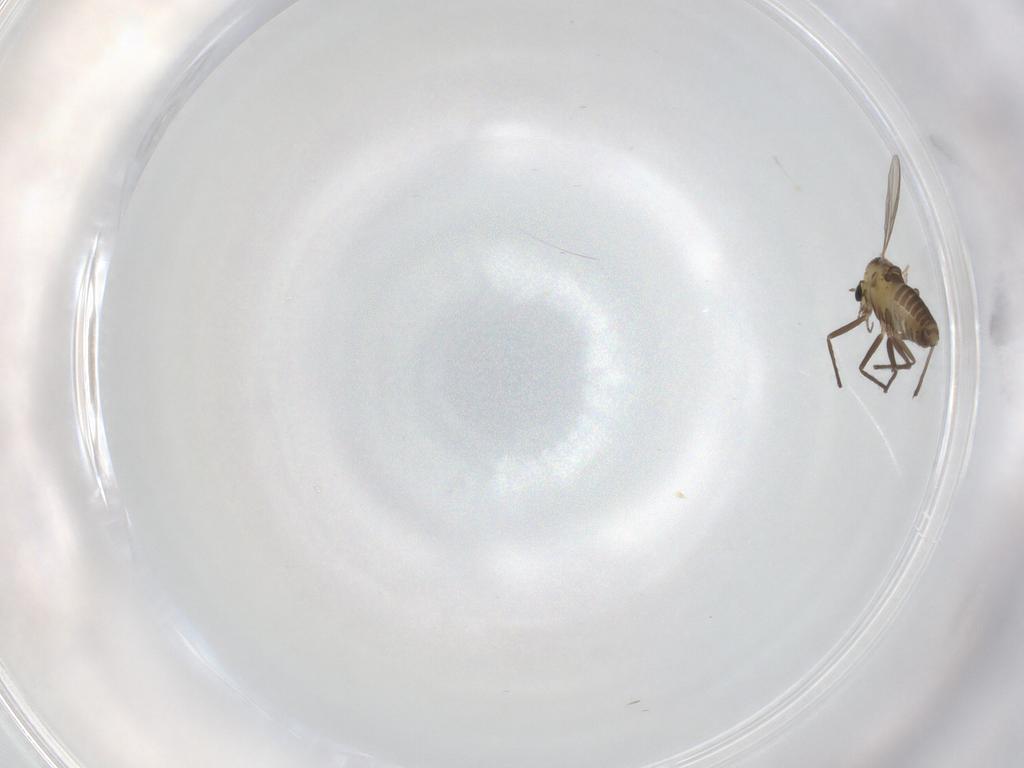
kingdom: Animalia
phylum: Arthropoda
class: Insecta
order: Diptera
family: Chironomidae
